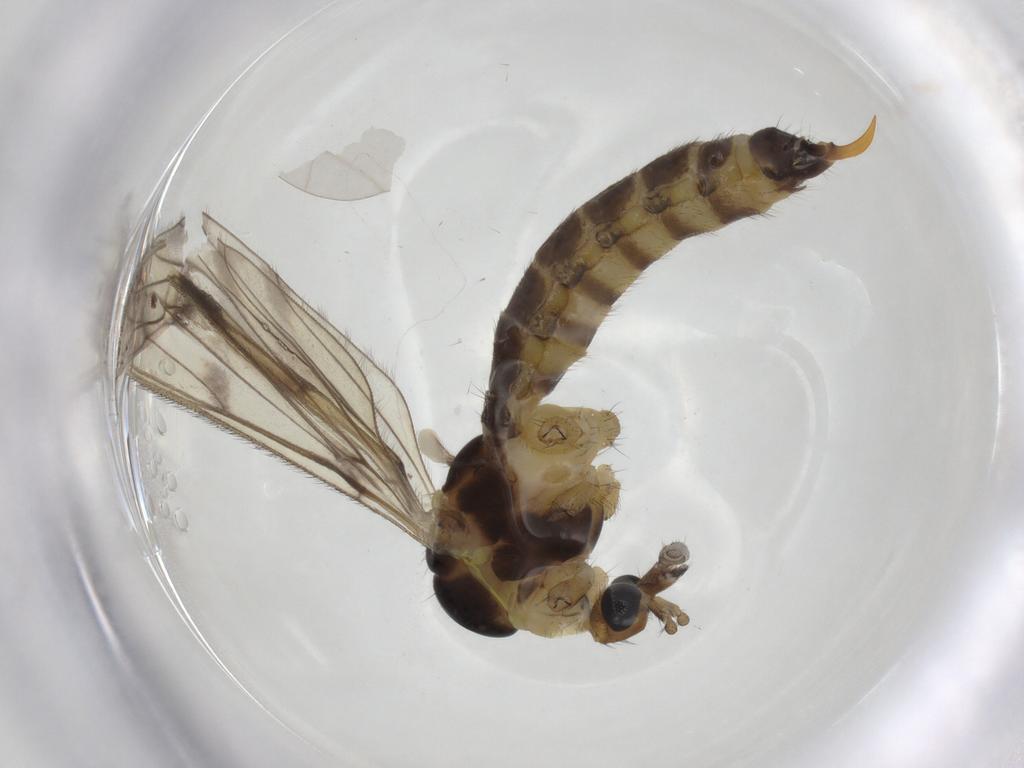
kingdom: Animalia
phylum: Arthropoda
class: Insecta
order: Diptera
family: Limoniidae
